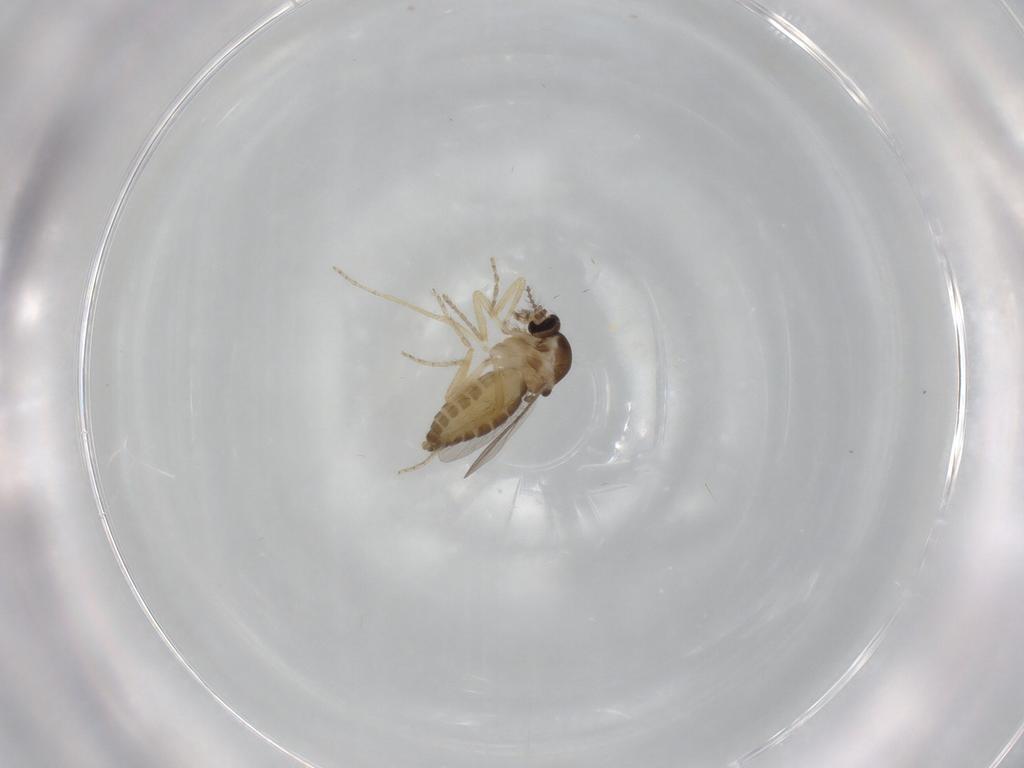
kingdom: Animalia
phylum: Arthropoda
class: Insecta
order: Diptera
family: Ceratopogonidae
